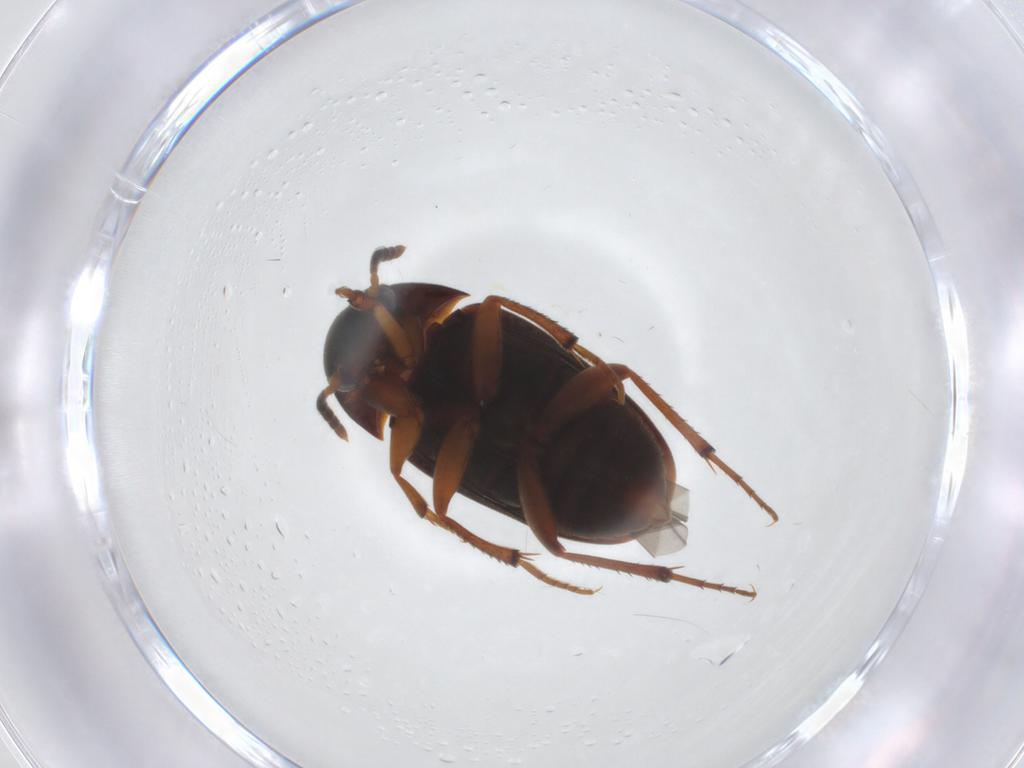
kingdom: Animalia
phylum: Arthropoda
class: Insecta
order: Coleoptera
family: Leiodidae
